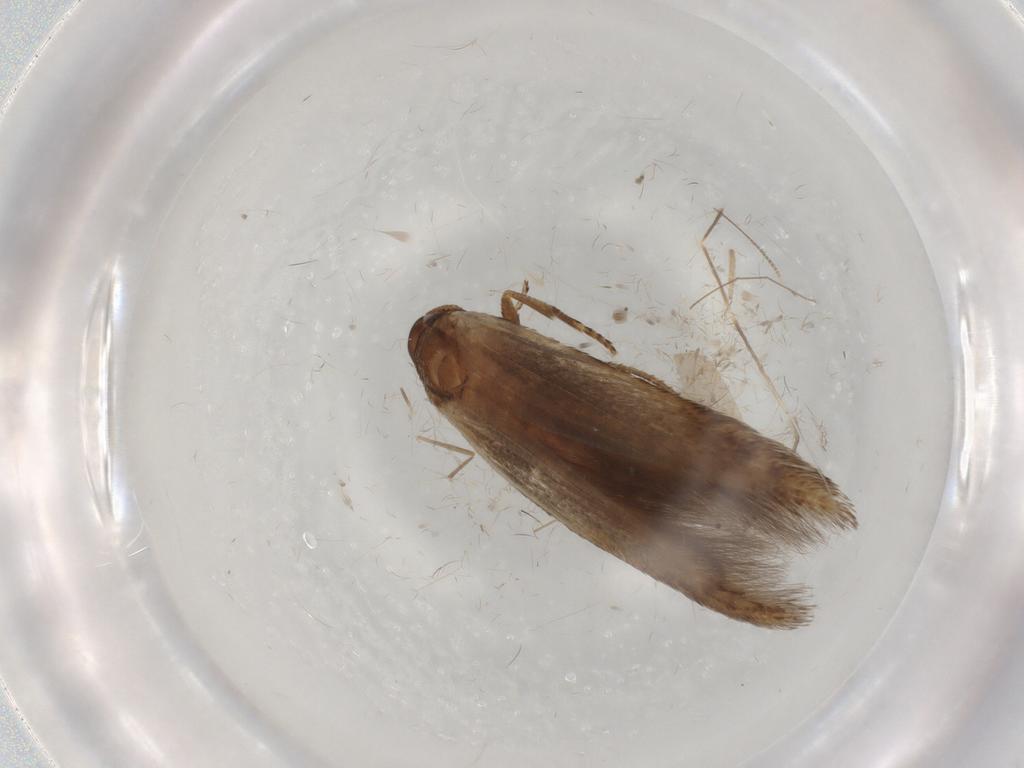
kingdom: Animalia
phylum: Arthropoda
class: Insecta
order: Lepidoptera
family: Cosmopterigidae
